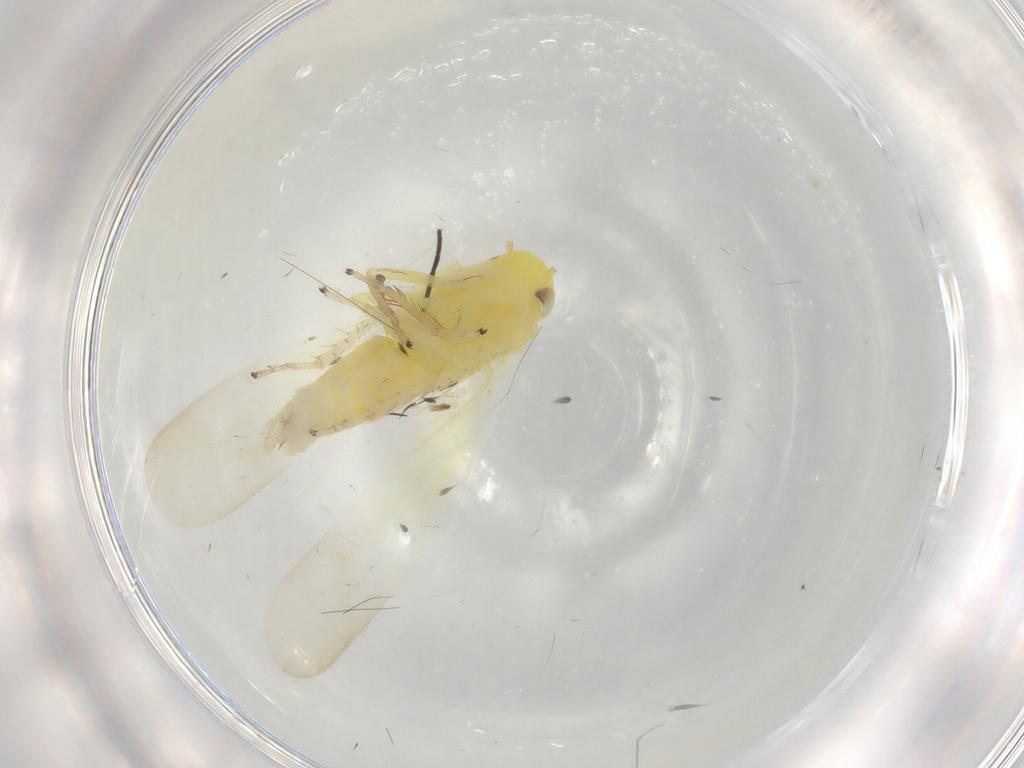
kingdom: Animalia
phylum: Arthropoda
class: Insecta
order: Hemiptera
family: Cicadellidae
